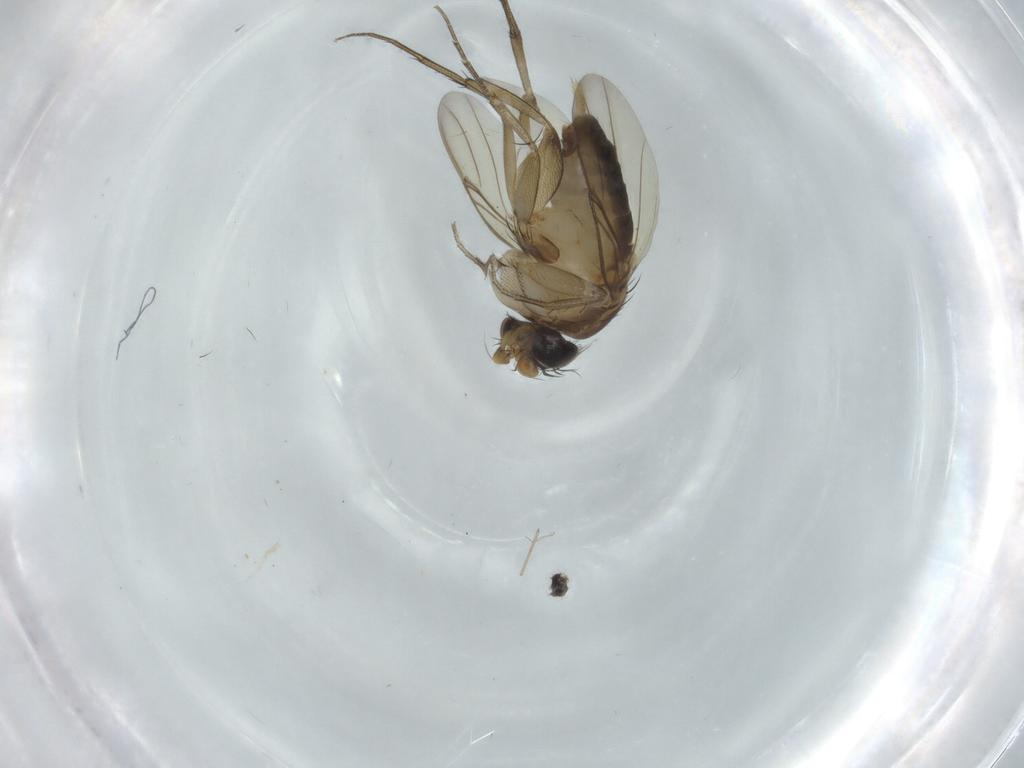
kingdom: Animalia
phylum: Arthropoda
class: Insecta
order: Diptera
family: Phoridae
